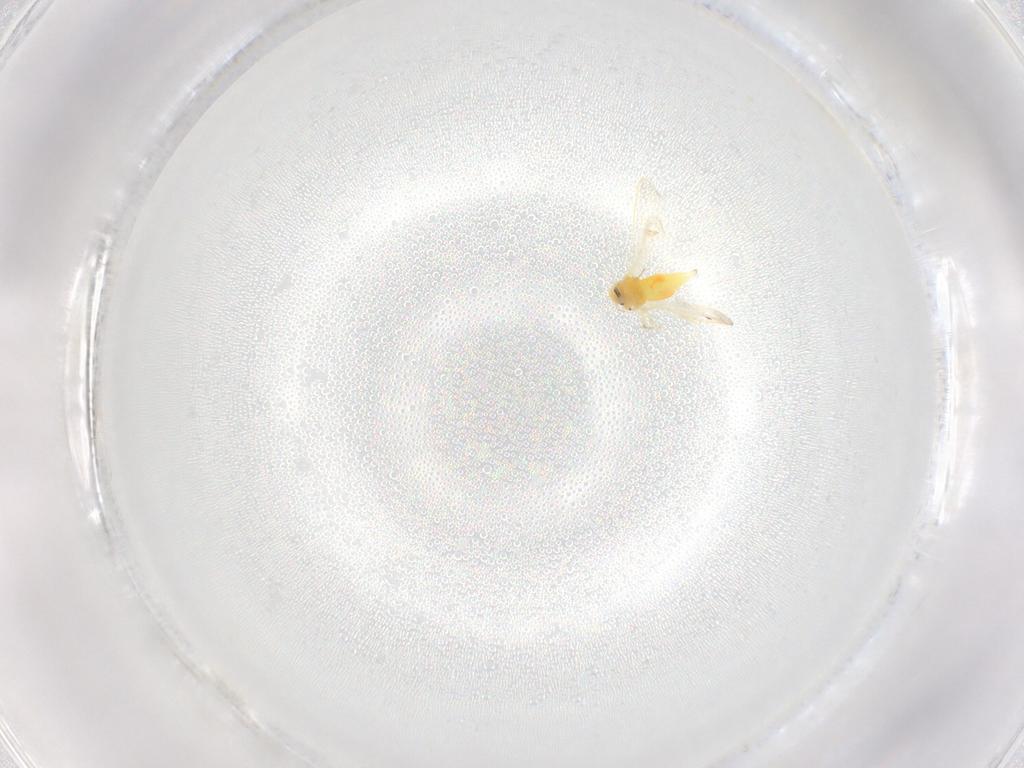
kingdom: Animalia
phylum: Arthropoda
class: Insecta
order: Hemiptera
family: Aleyrodidae
